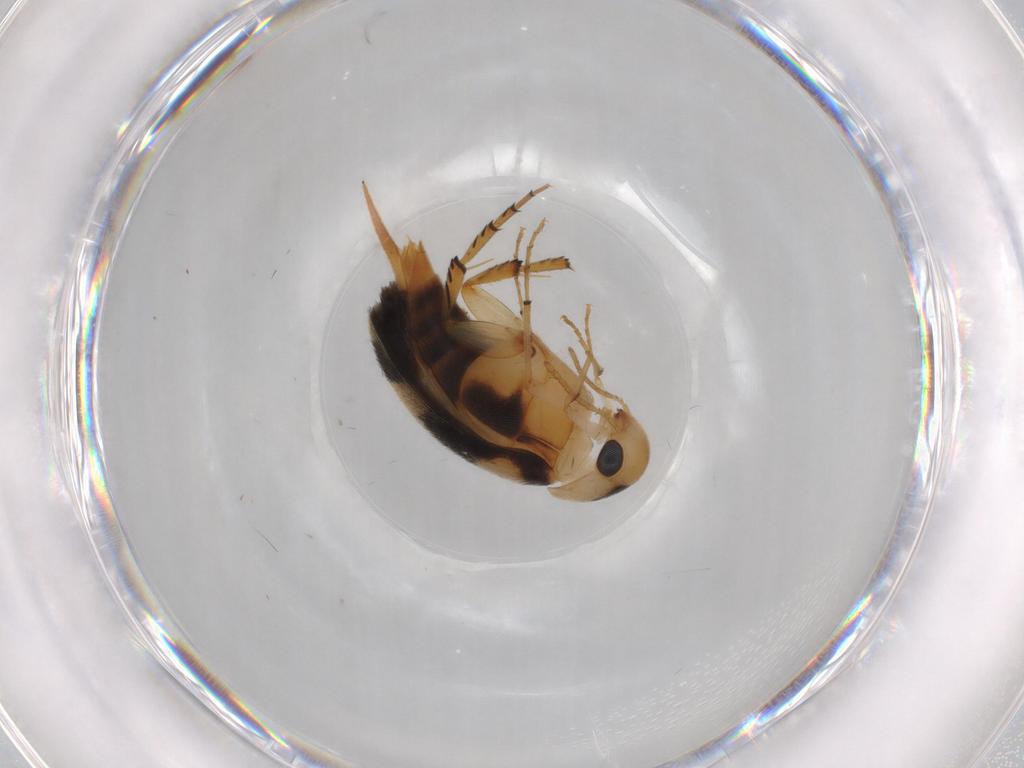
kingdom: Animalia
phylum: Arthropoda
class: Insecta
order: Coleoptera
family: Mordellidae
